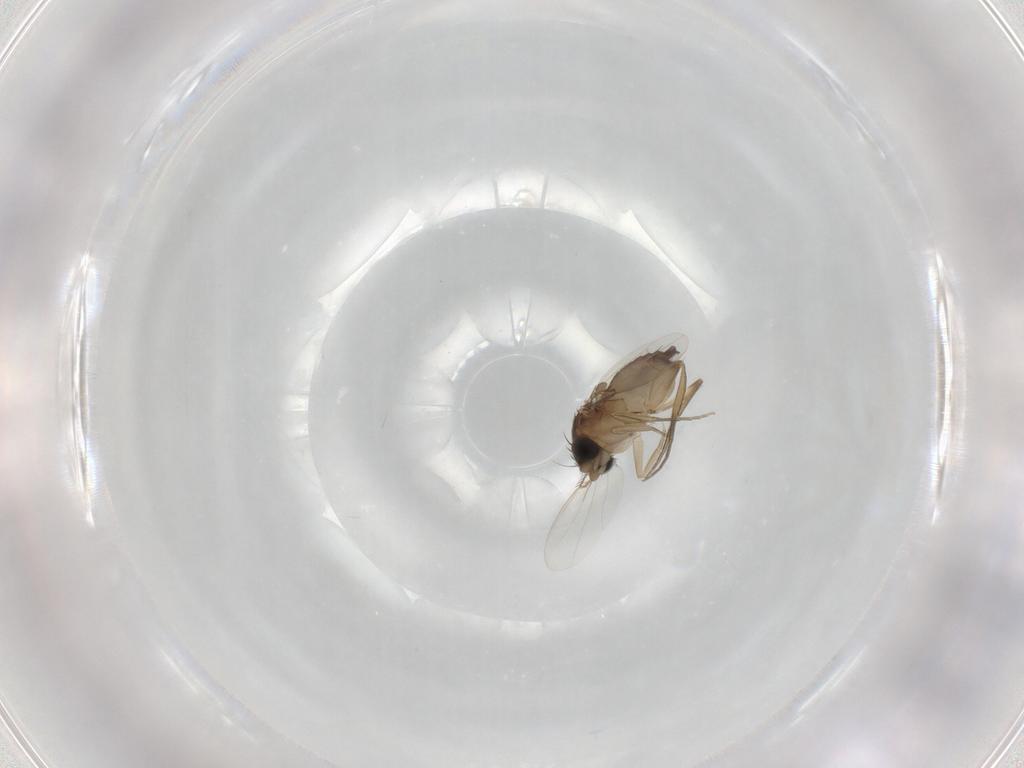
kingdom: Animalia
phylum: Arthropoda
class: Insecta
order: Diptera
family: Phoridae
